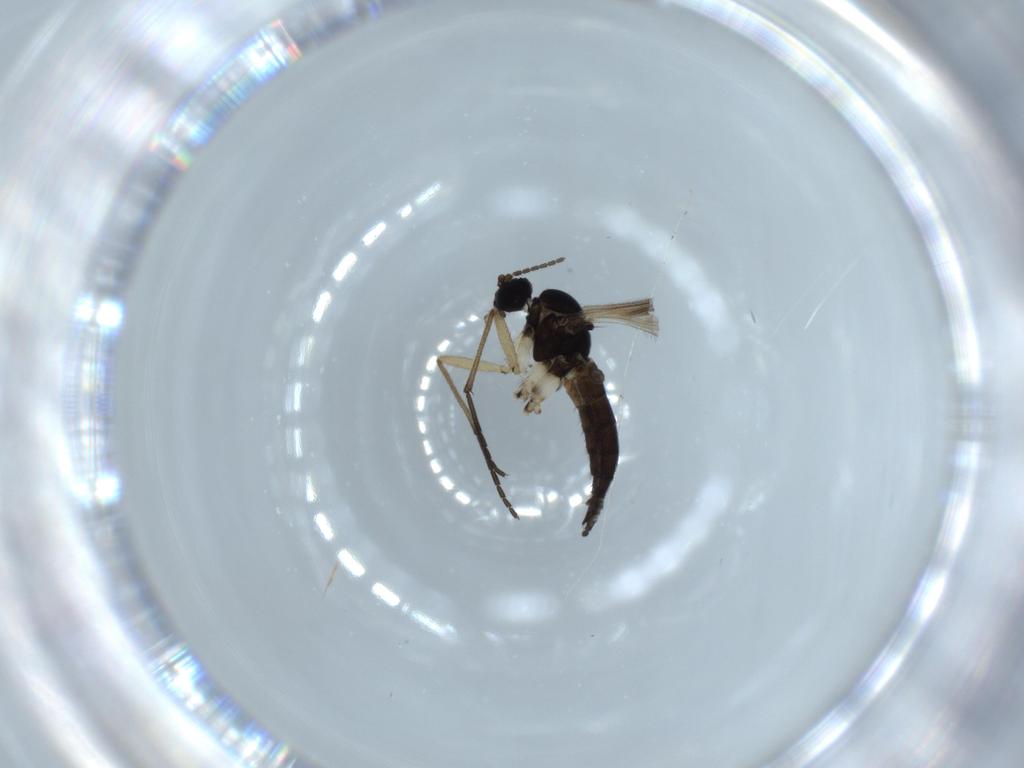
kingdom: Animalia
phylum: Arthropoda
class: Insecta
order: Diptera
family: Sciaridae
